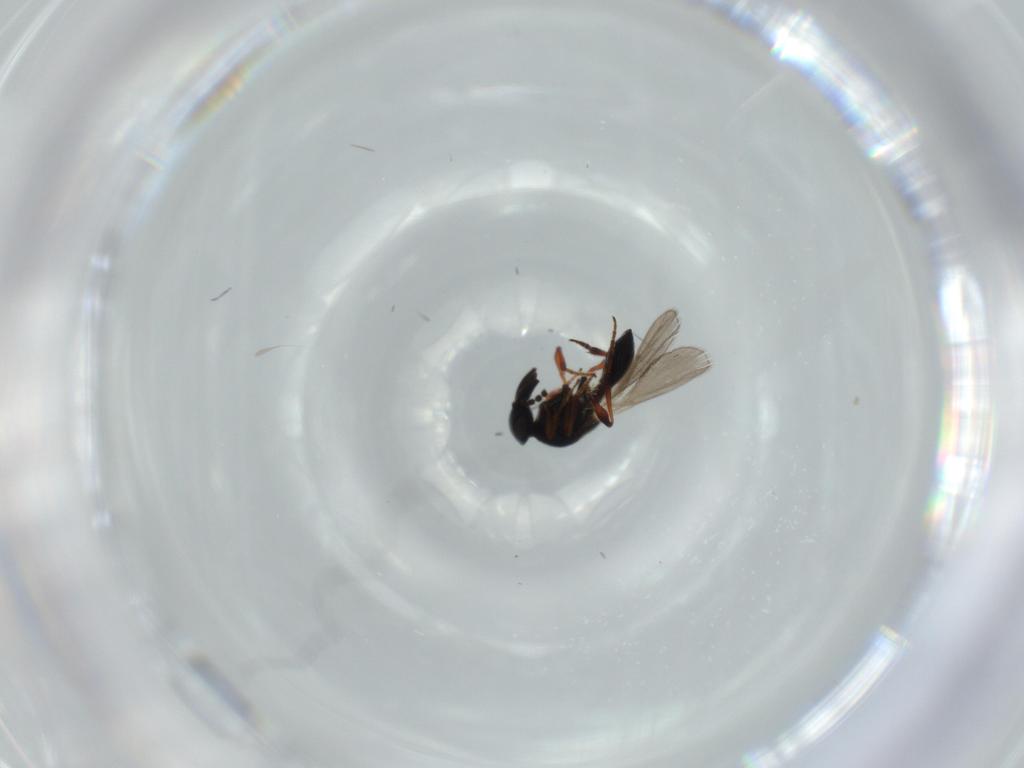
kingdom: Animalia
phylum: Arthropoda
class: Insecta
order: Hymenoptera
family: Platygastridae
